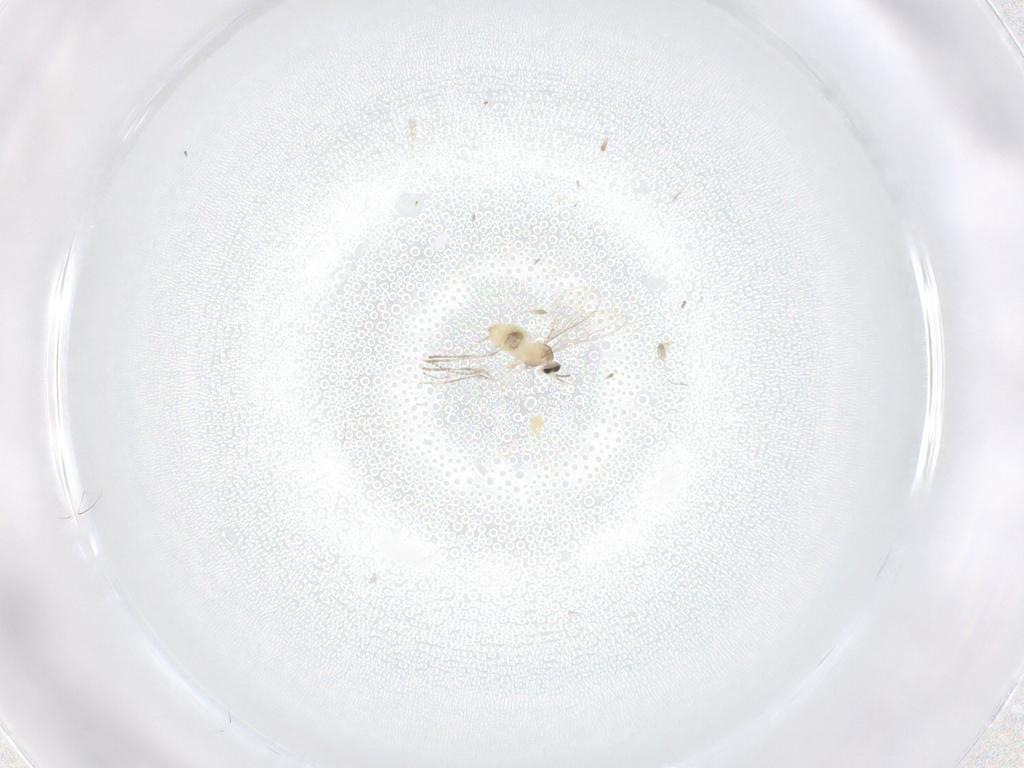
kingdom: Animalia
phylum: Arthropoda
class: Insecta
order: Diptera
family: Cecidomyiidae
